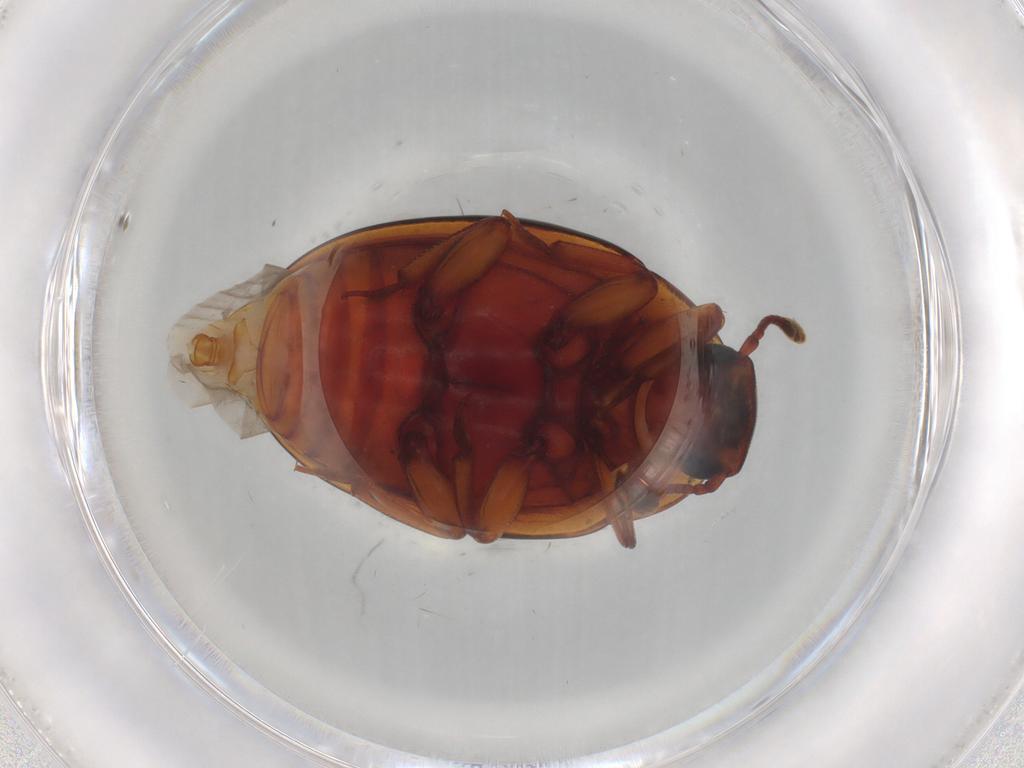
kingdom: Animalia
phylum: Arthropoda
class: Insecta
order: Coleoptera
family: Zopheridae
